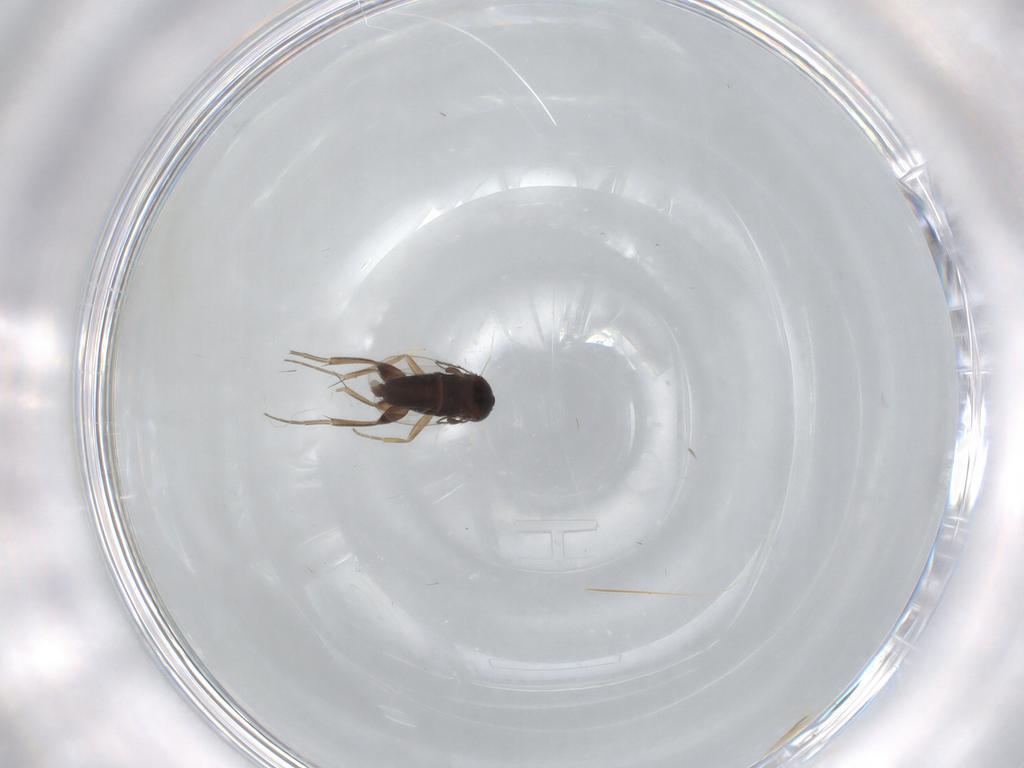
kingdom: Animalia
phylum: Arthropoda
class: Insecta
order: Diptera
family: Phoridae
